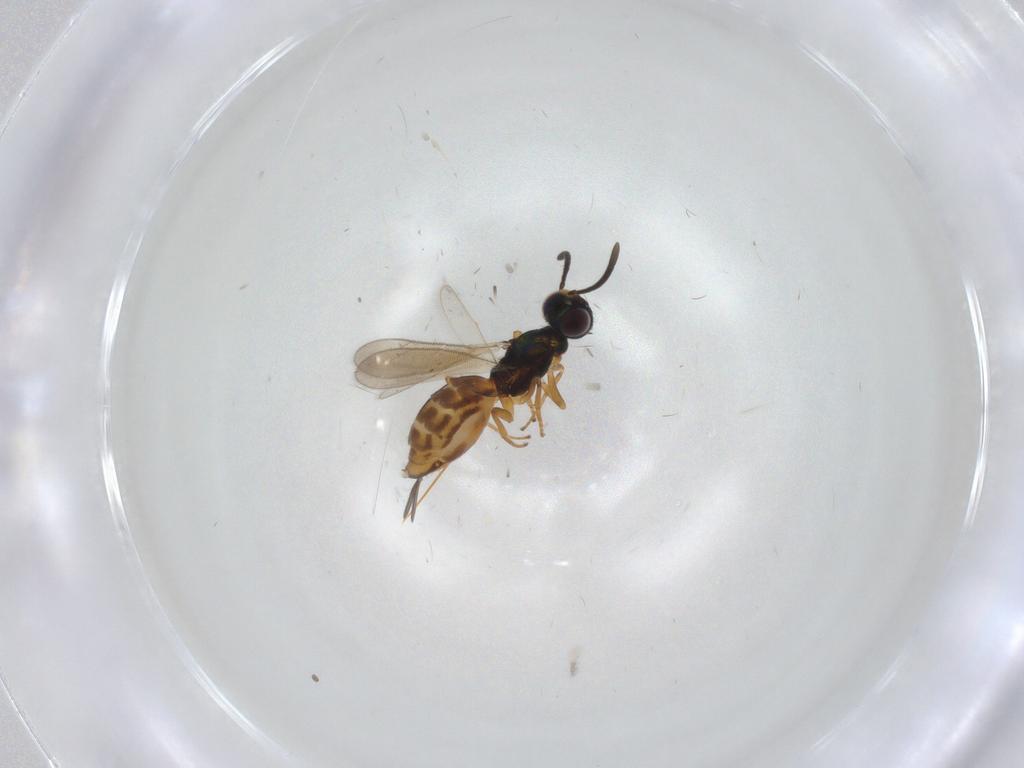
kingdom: Animalia
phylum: Arthropoda
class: Insecta
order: Hymenoptera
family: Eupelmidae
